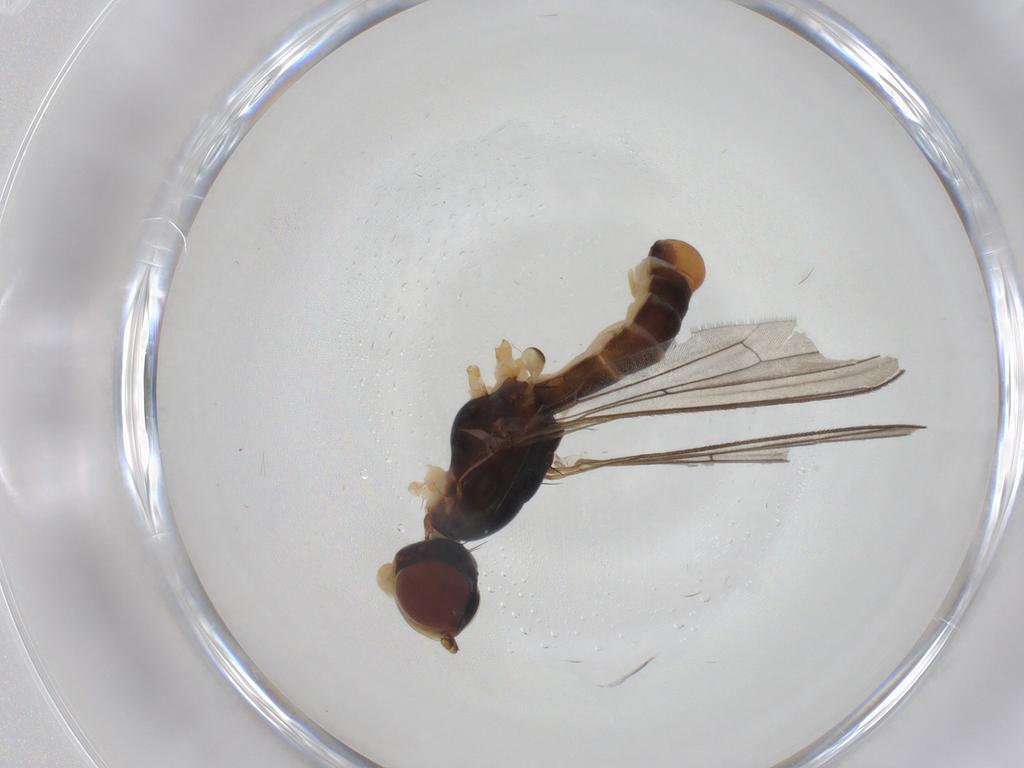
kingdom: Animalia
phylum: Arthropoda
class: Insecta
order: Diptera
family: Micropezidae
